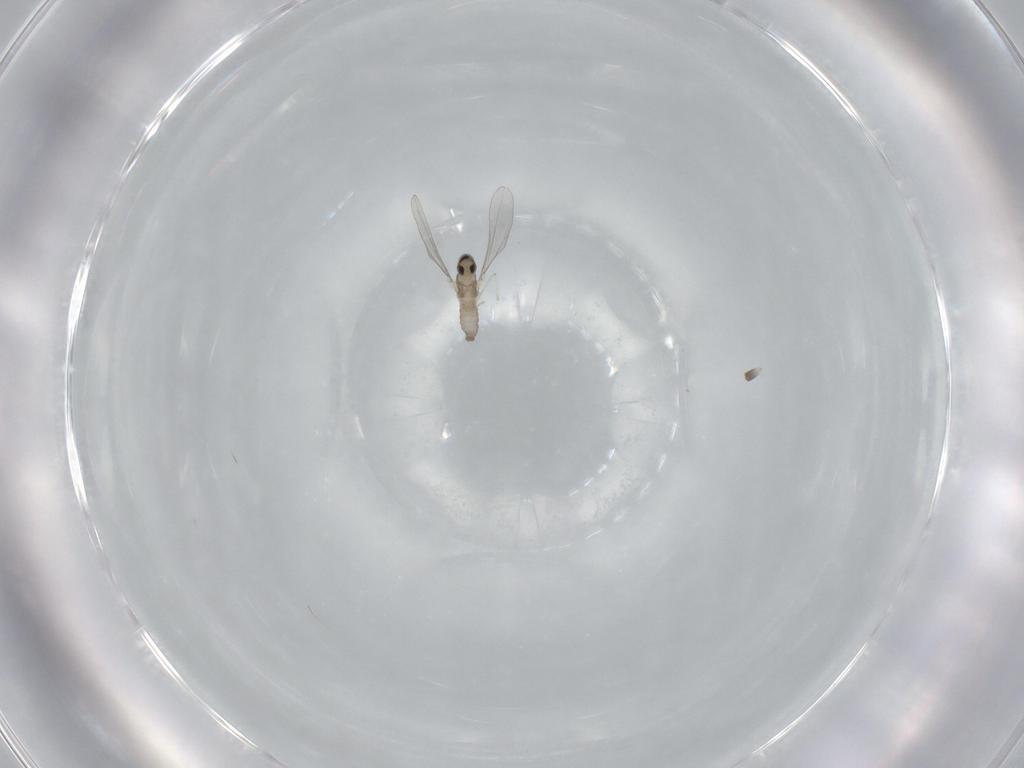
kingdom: Animalia
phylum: Arthropoda
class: Insecta
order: Diptera
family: Cecidomyiidae
